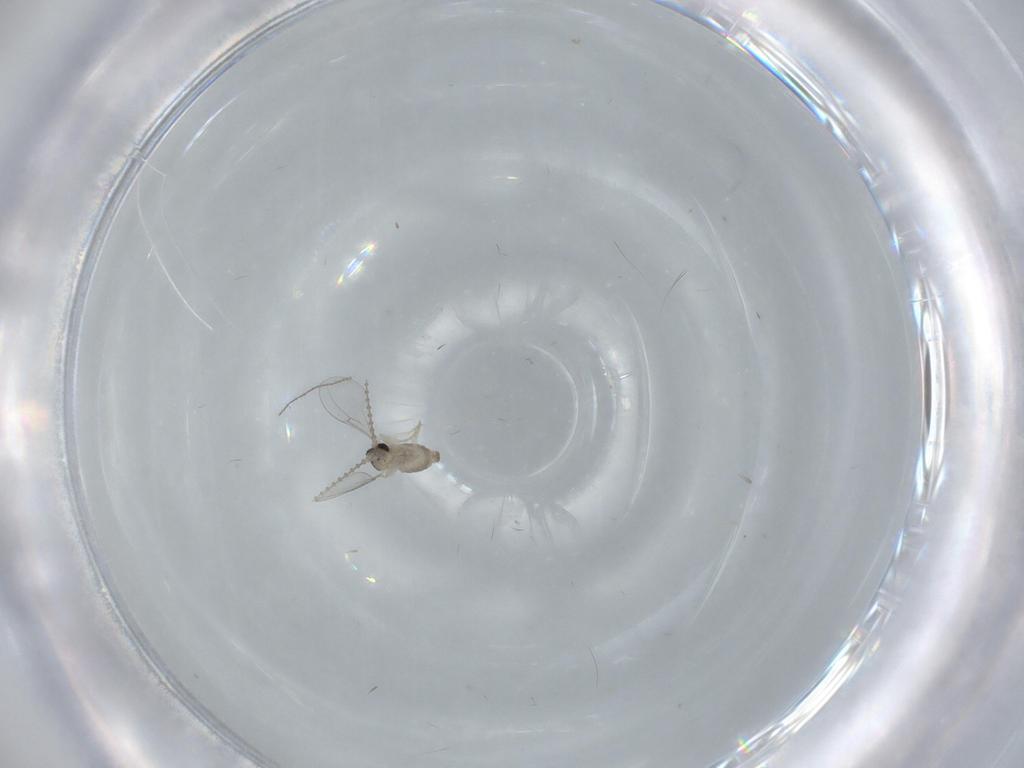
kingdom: Animalia
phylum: Arthropoda
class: Insecta
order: Diptera
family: Cecidomyiidae
